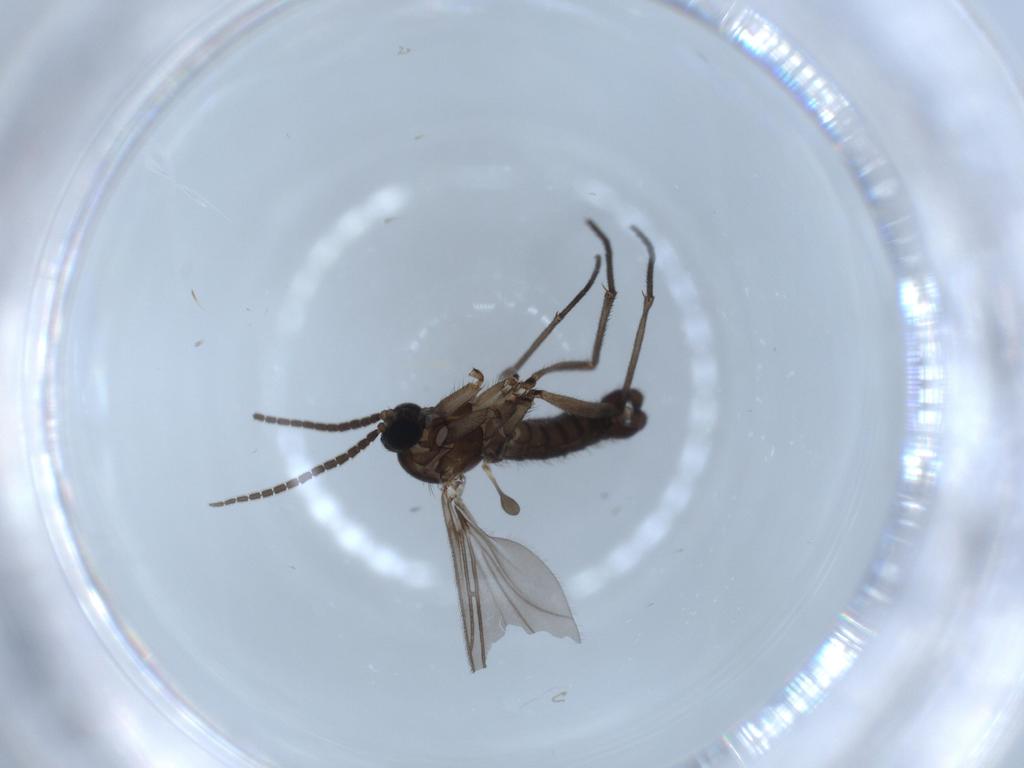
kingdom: Animalia
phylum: Arthropoda
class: Insecta
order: Diptera
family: Sciaridae
